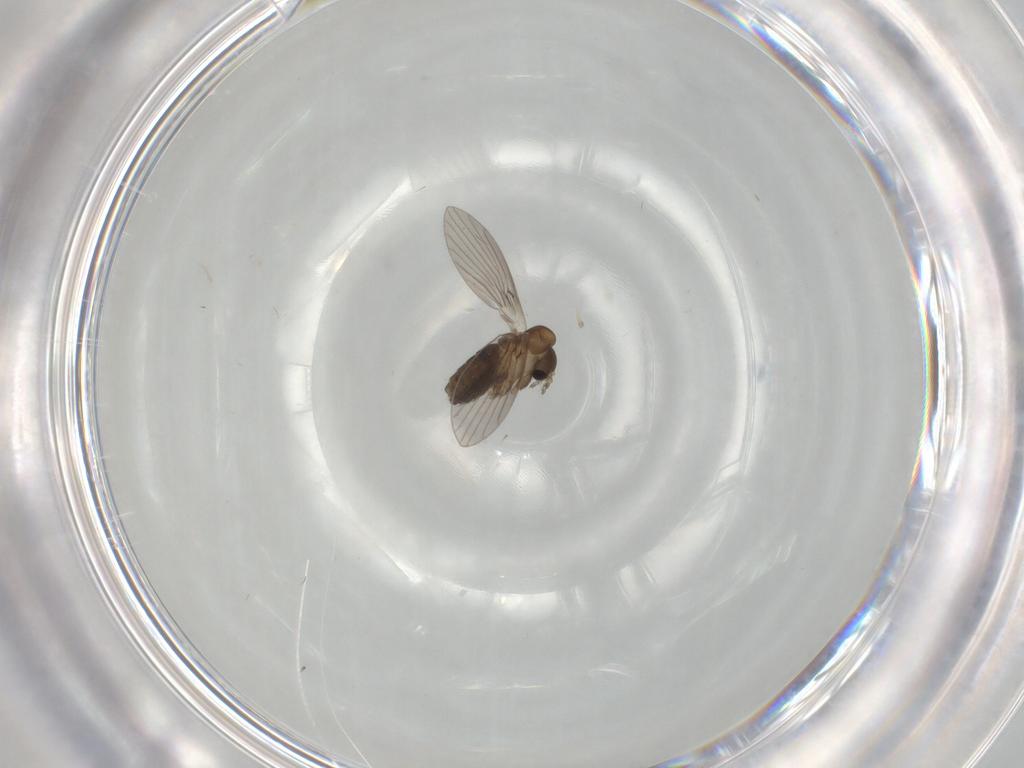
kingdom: Animalia
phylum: Arthropoda
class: Insecta
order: Diptera
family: Psychodidae
